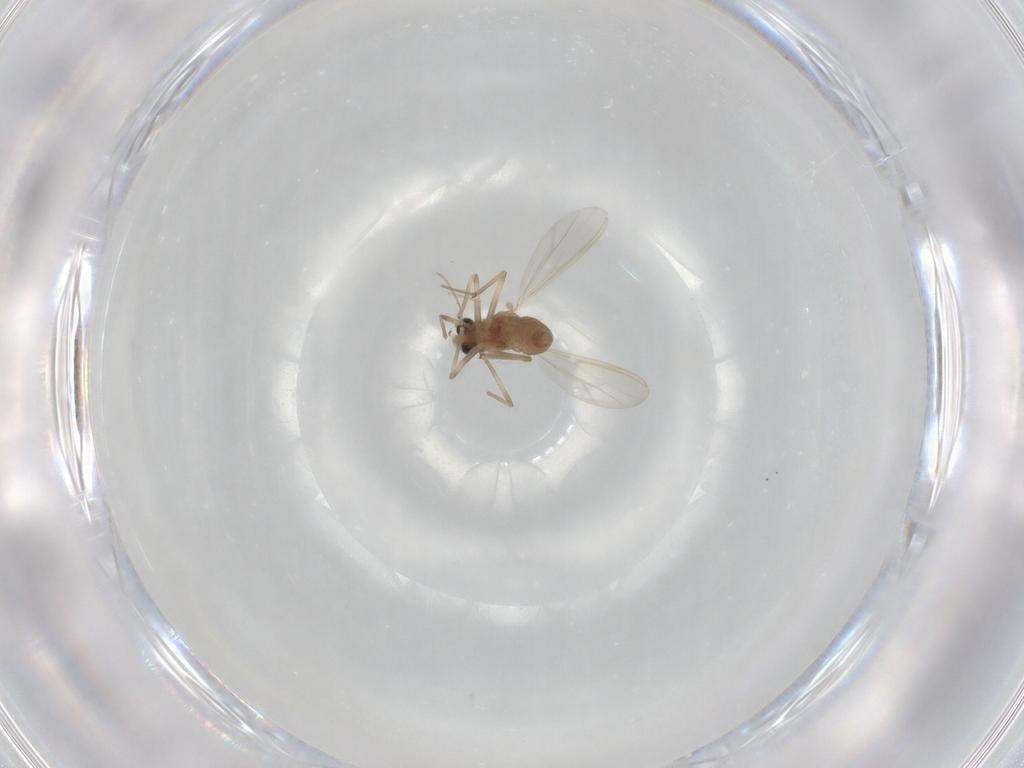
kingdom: Animalia
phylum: Arthropoda
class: Insecta
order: Diptera
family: Chironomidae
